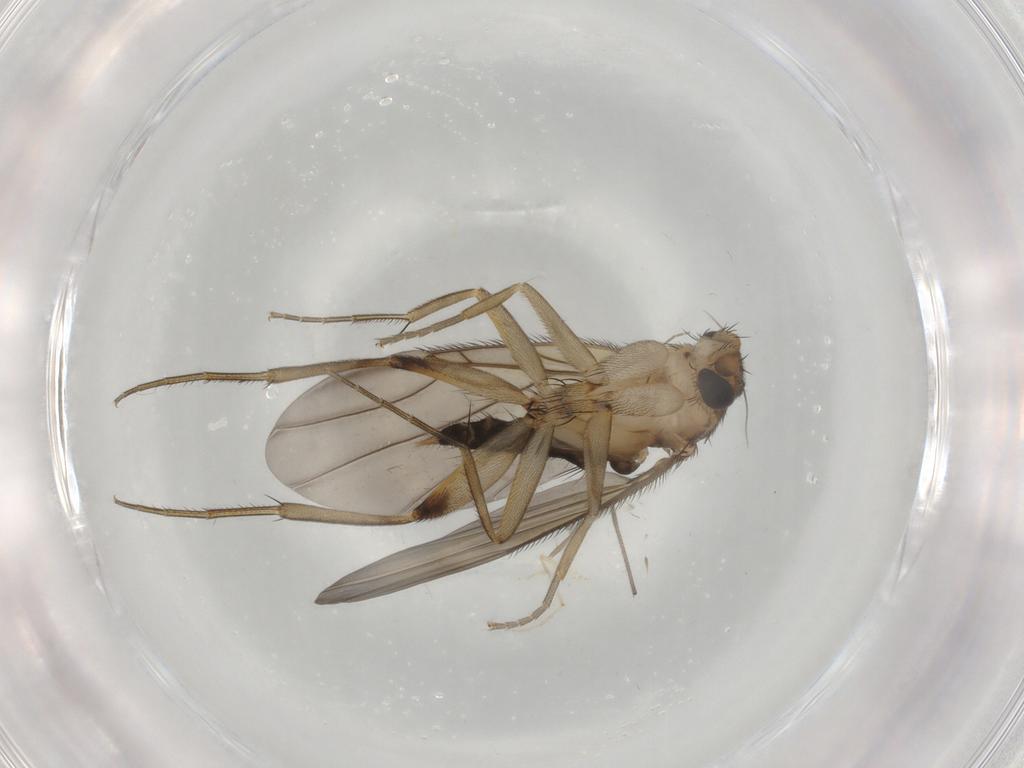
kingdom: Animalia
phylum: Arthropoda
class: Insecta
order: Diptera
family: Phoridae
